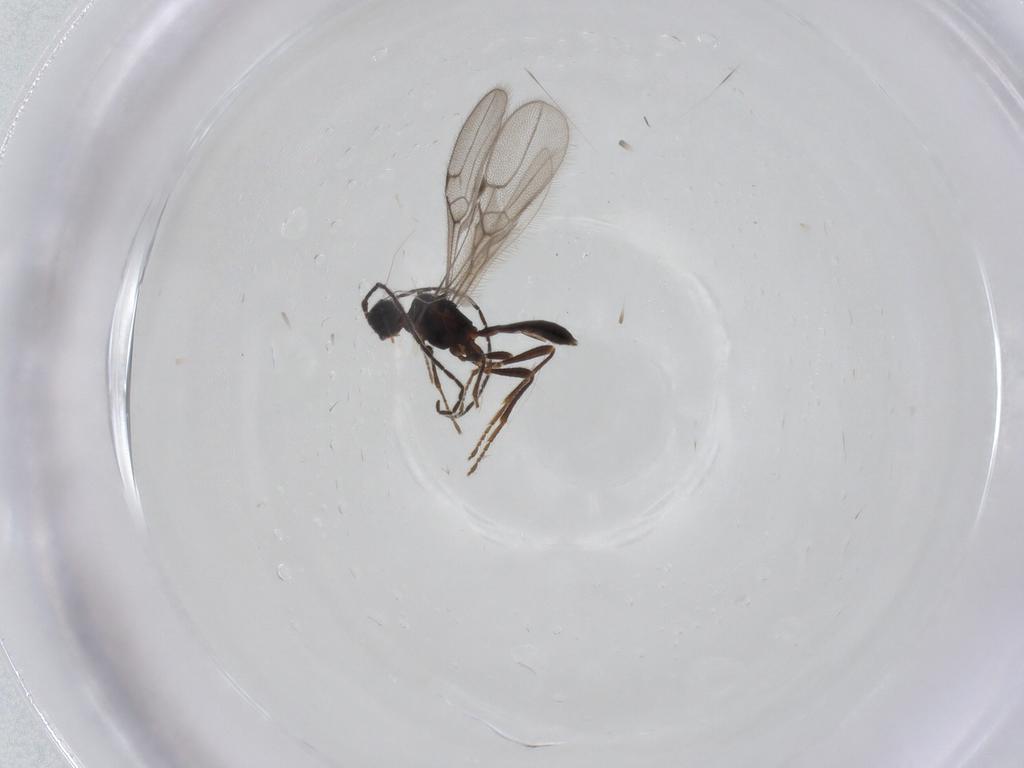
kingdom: Animalia
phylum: Arthropoda
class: Insecta
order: Hymenoptera
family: Braconidae
